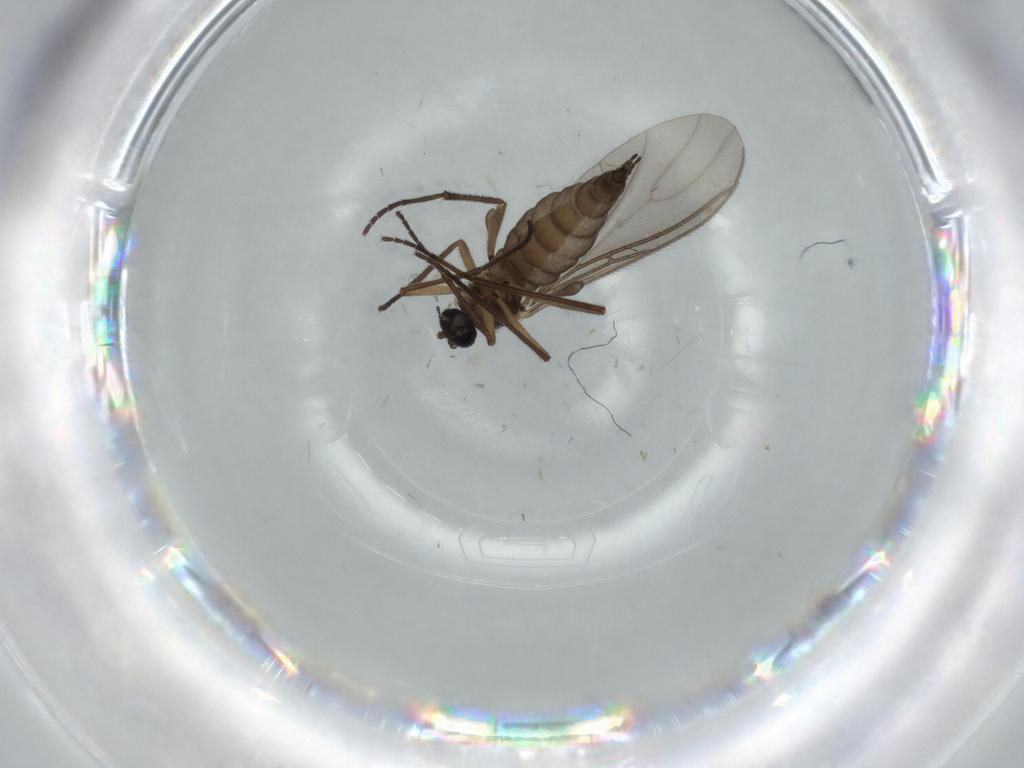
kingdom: Animalia
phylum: Arthropoda
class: Insecta
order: Diptera
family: Sciaridae
